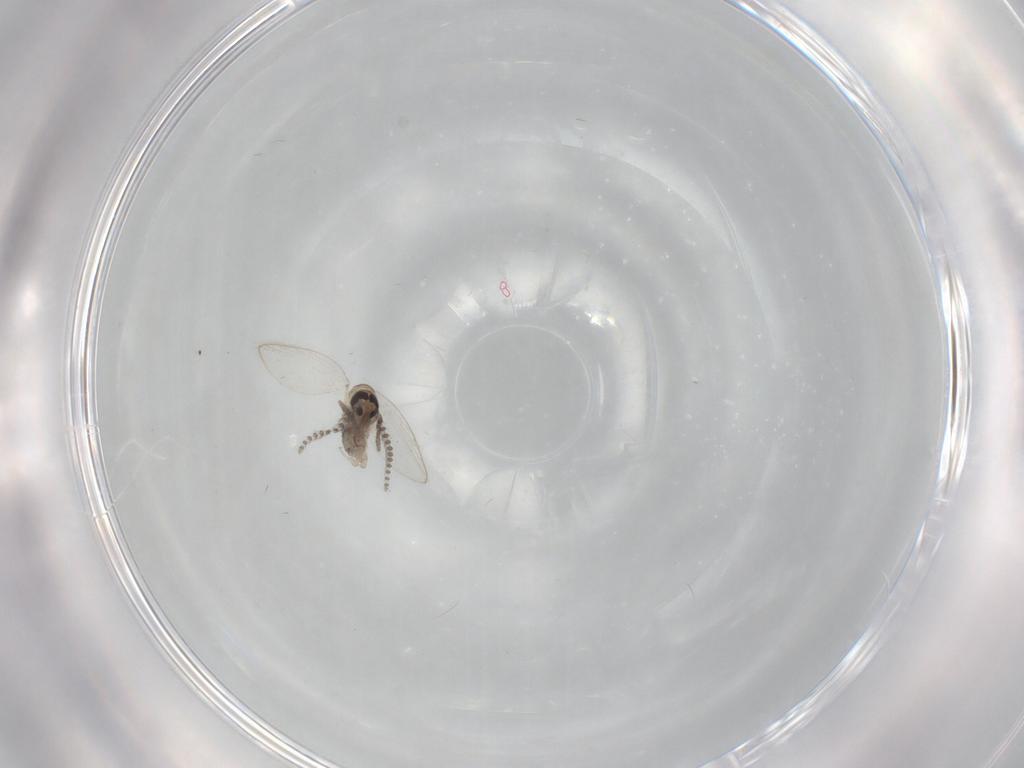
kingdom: Animalia
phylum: Arthropoda
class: Insecta
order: Diptera
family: Psychodidae
